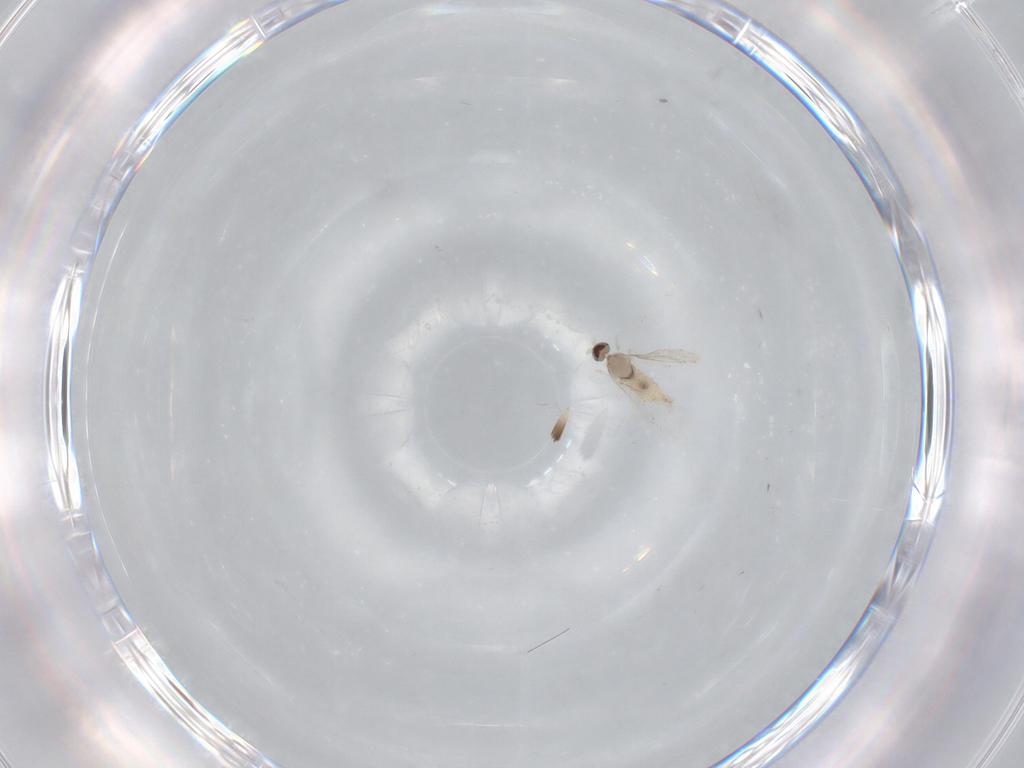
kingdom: Animalia
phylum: Arthropoda
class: Insecta
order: Diptera
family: Cecidomyiidae
